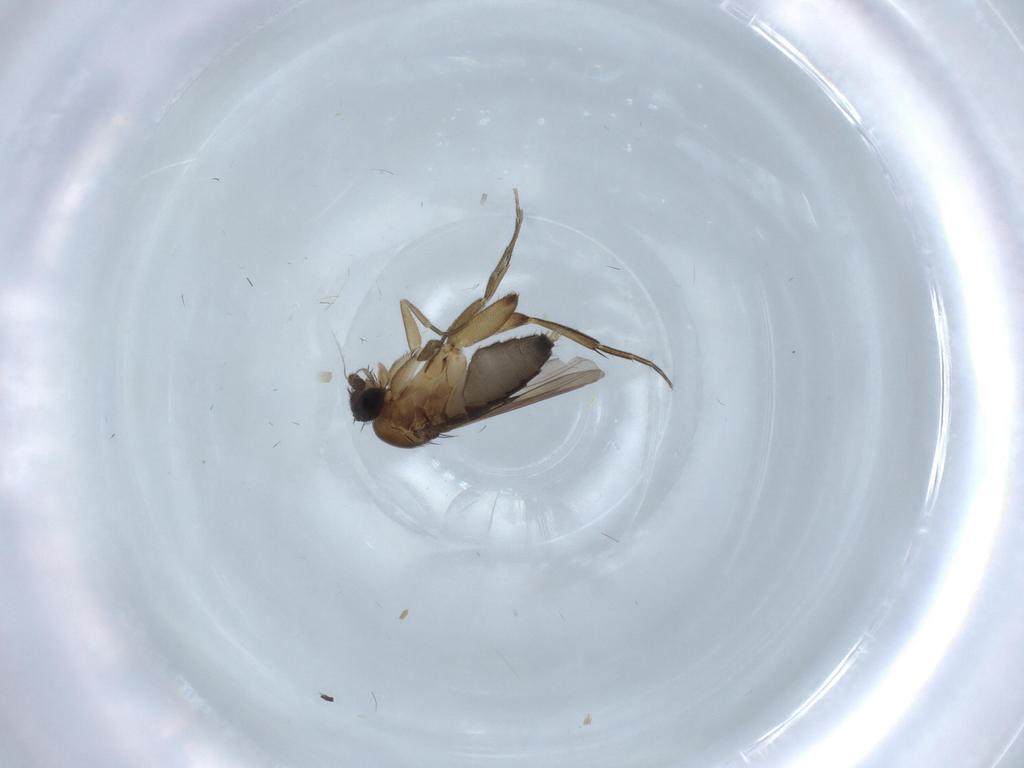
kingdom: Animalia
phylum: Arthropoda
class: Insecta
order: Diptera
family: Phoridae
